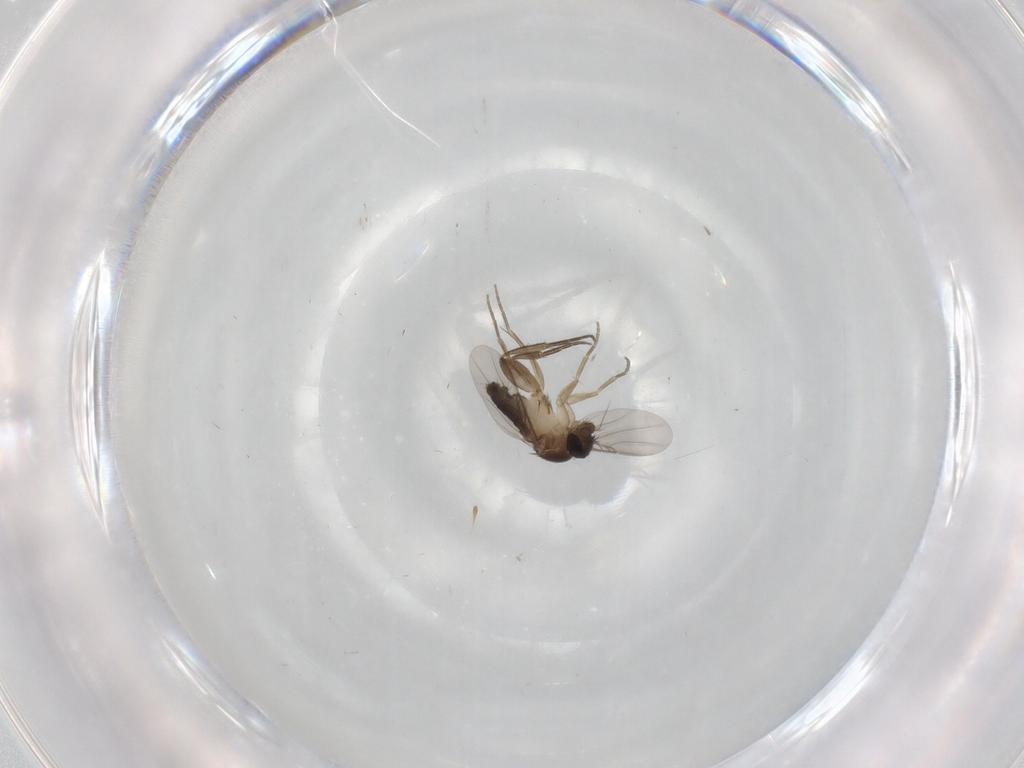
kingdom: Animalia
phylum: Arthropoda
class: Insecta
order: Diptera
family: Phoridae
